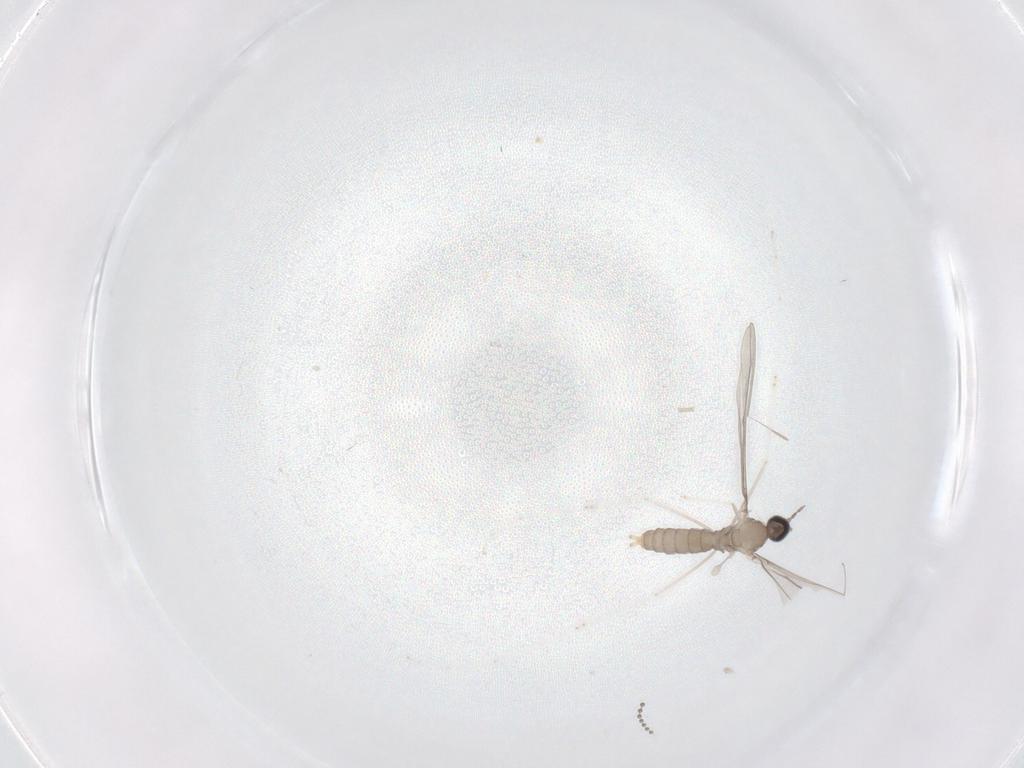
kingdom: Animalia
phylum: Arthropoda
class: Insecta
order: Diptera
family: Psychodidae
